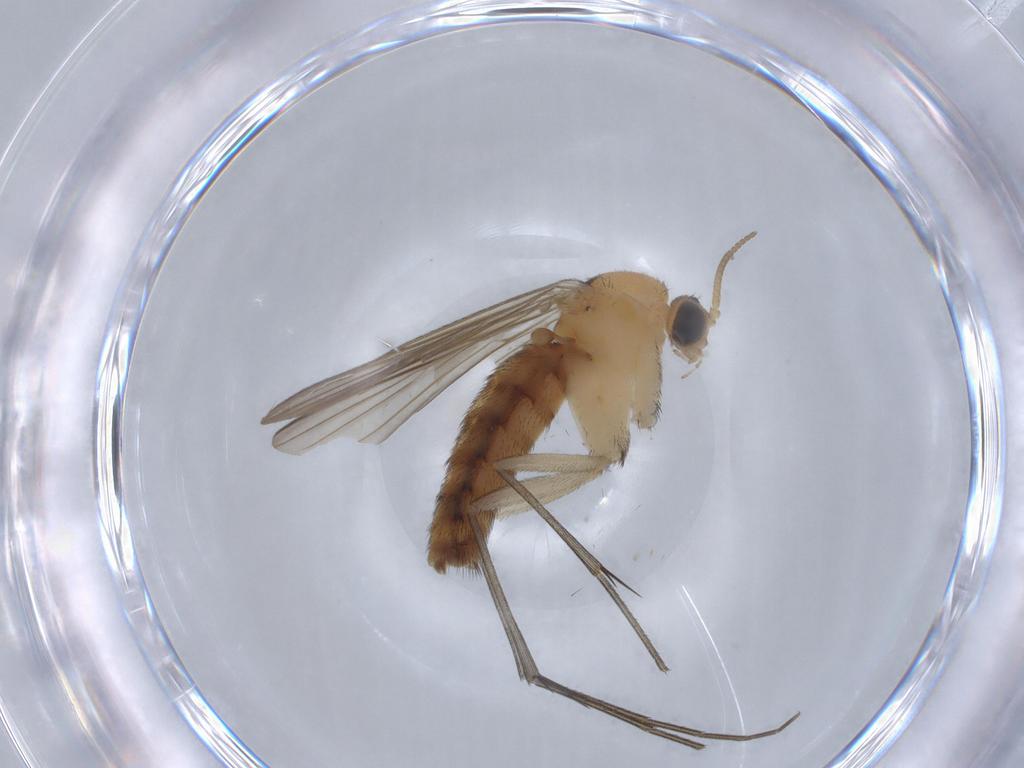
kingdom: Animalia
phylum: Arthropoda
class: Insecta
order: Diptera
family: Keroplatidae
